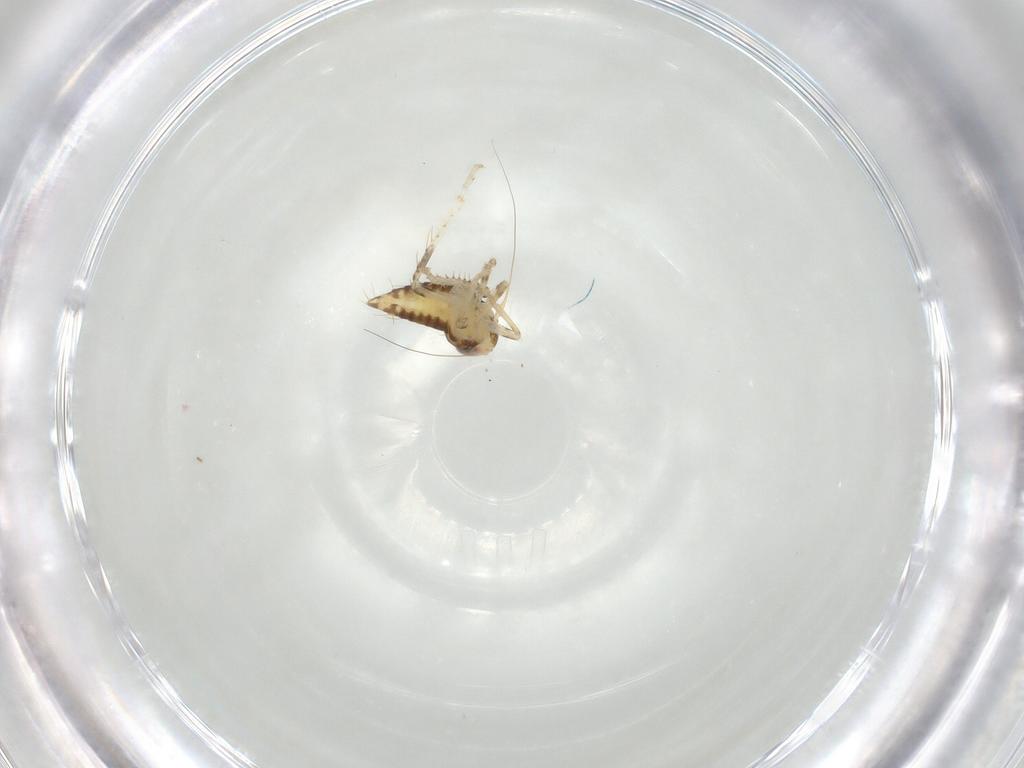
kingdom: Animalia
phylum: Arthropoda
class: Insecta
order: Hemiptera
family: Cicadellidae
